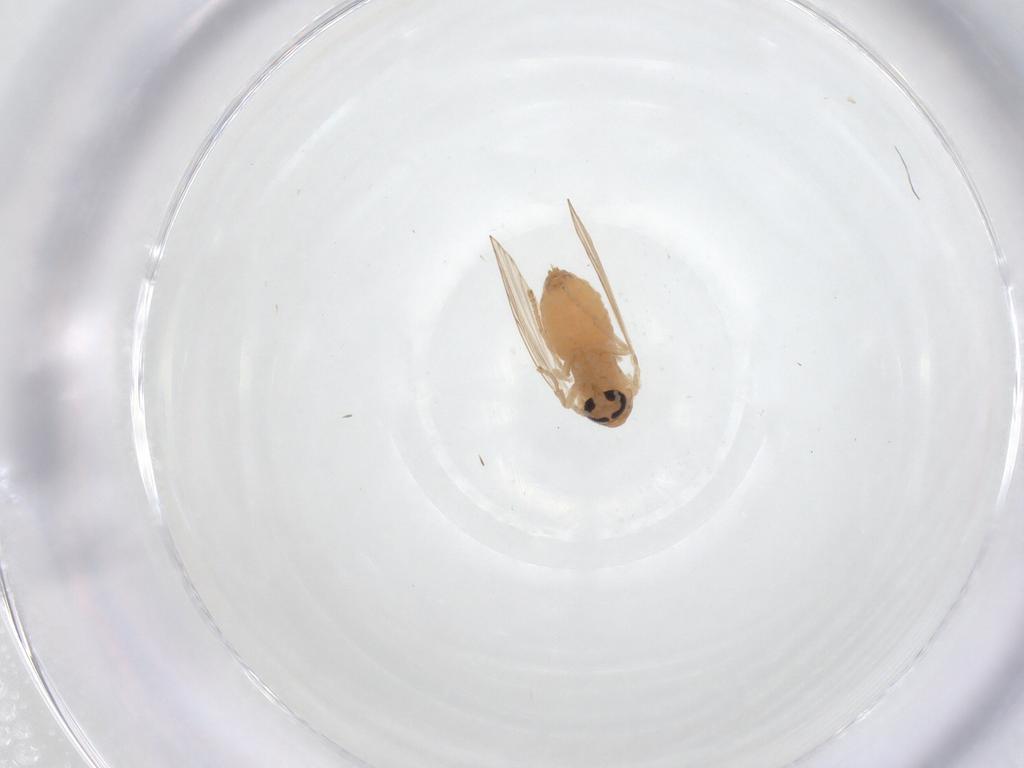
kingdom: Animalia
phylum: Arthropoda
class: Insecta
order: Diptera
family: Psychodidae
